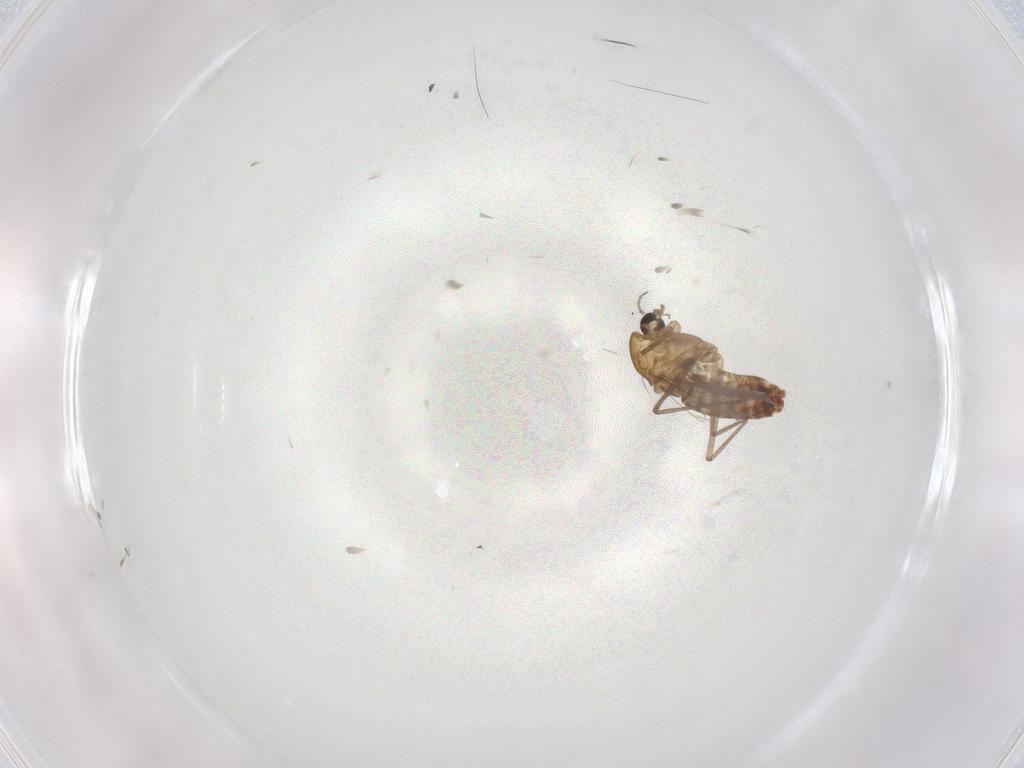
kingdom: Animalia
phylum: Arthropoda
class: Insecta
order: Diptera
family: Chironomidae
